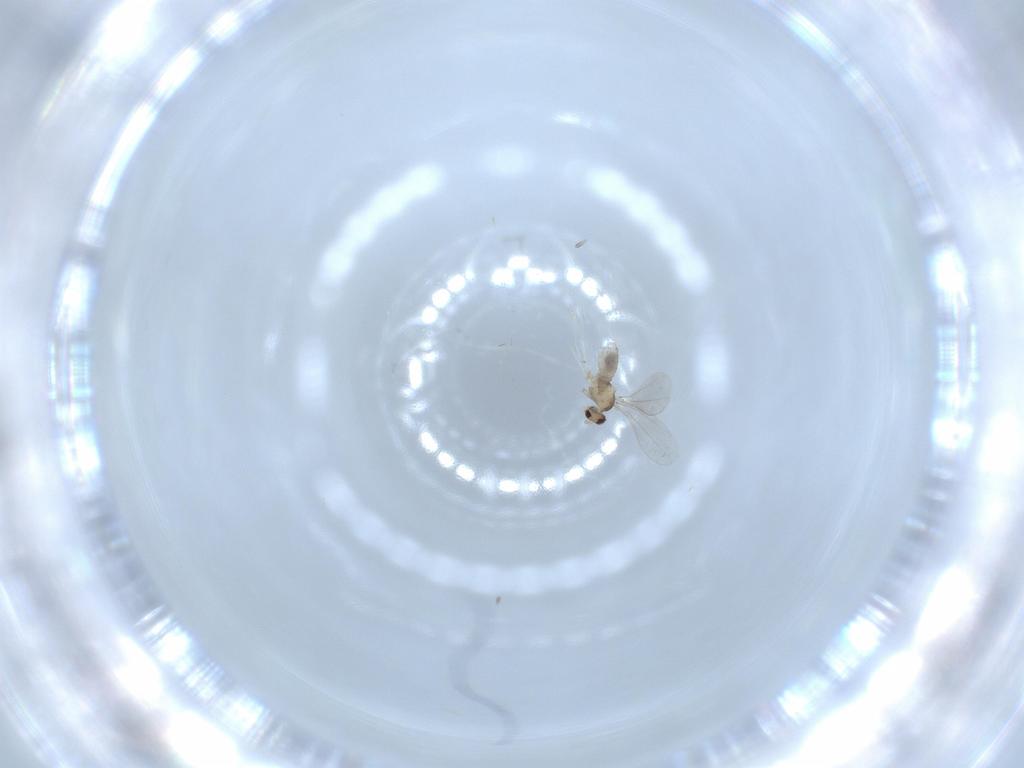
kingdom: Animalia
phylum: Arthropoda
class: Insecta
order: Diptera
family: Cecidomyiidae
